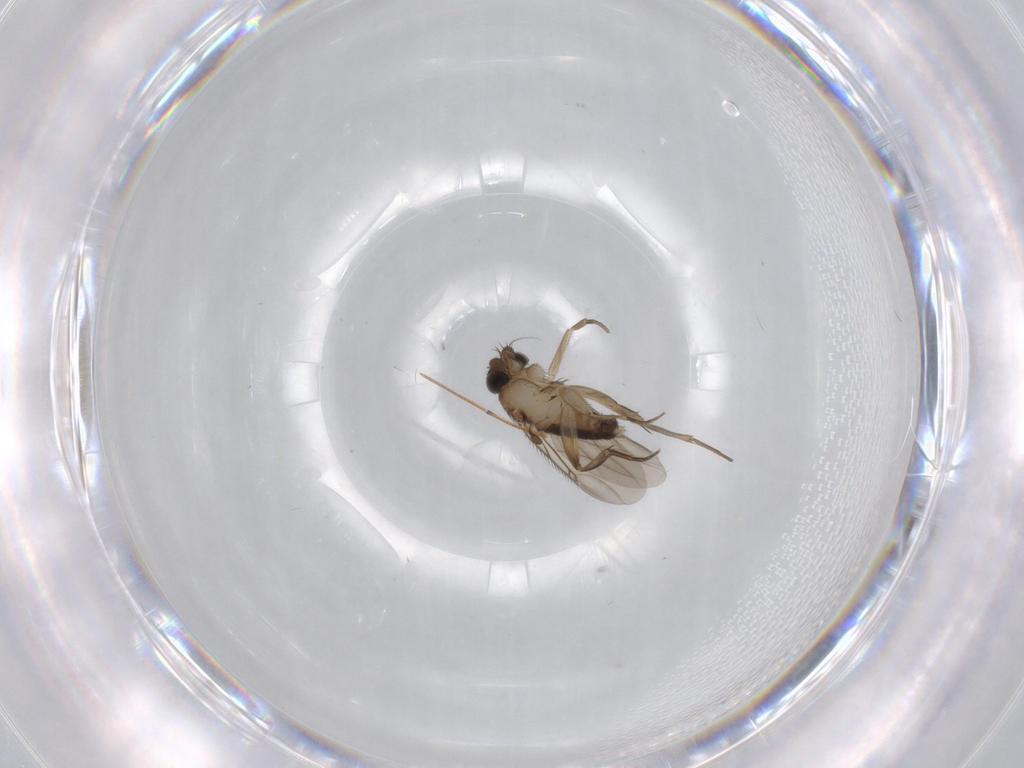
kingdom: Animalia
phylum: Arthropoda
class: Insecta
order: Diptera
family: Phoridae
